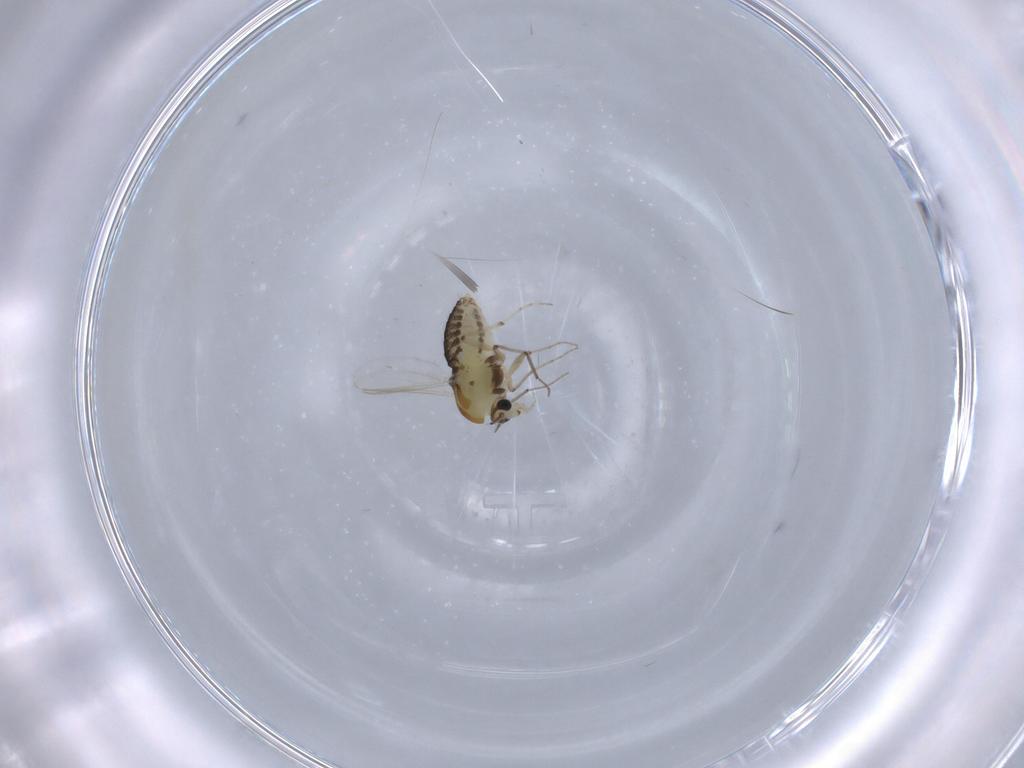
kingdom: Animalia
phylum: Arthropoda
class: Insecta
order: Diptera
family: Chironomidae
